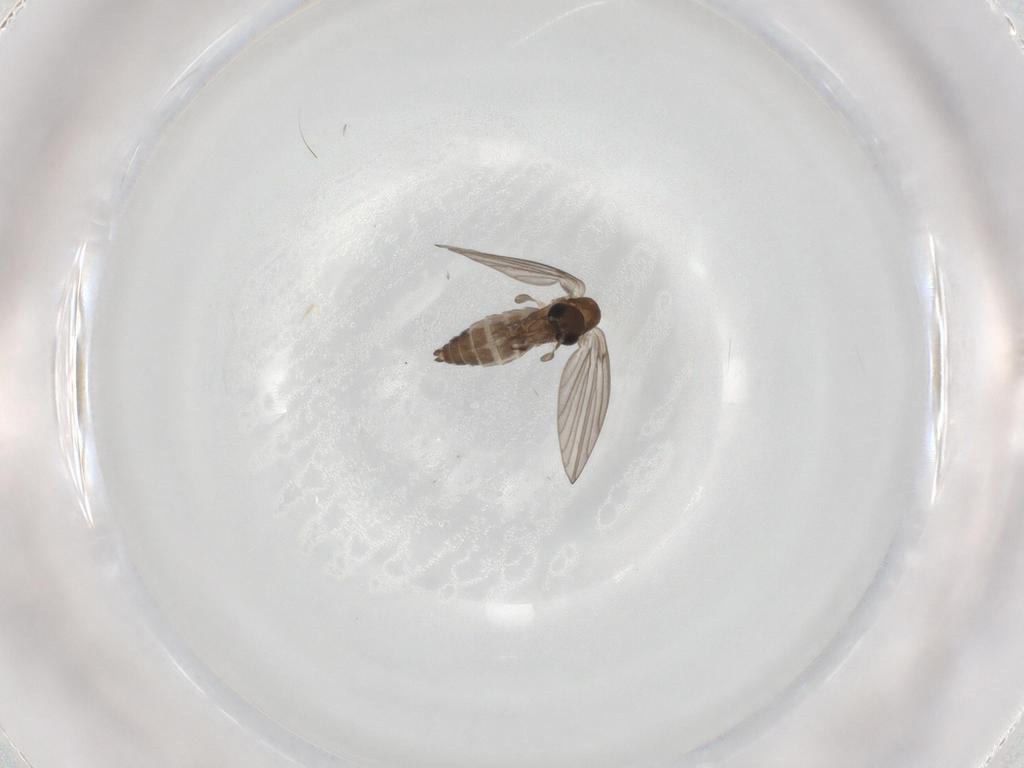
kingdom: Animalia
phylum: Arthropoda
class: Insecta
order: Diptera
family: Psychodidae
